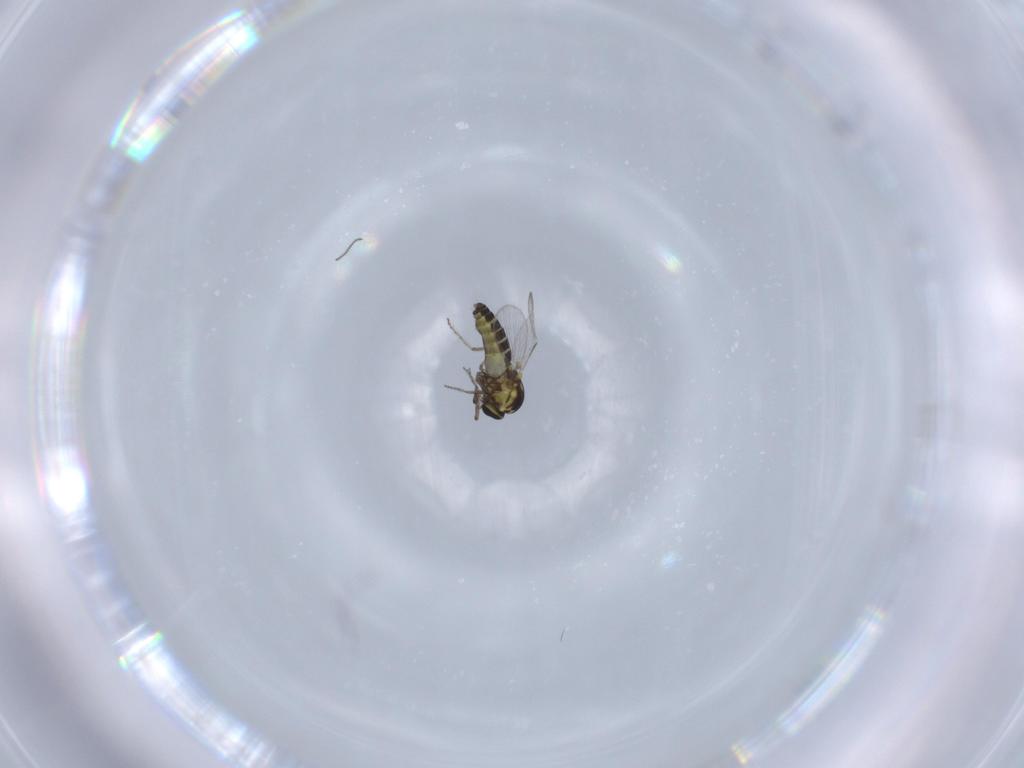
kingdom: Animalia
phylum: Arthropoda
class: Insecta
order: Diptera
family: Ceratopogonidae
